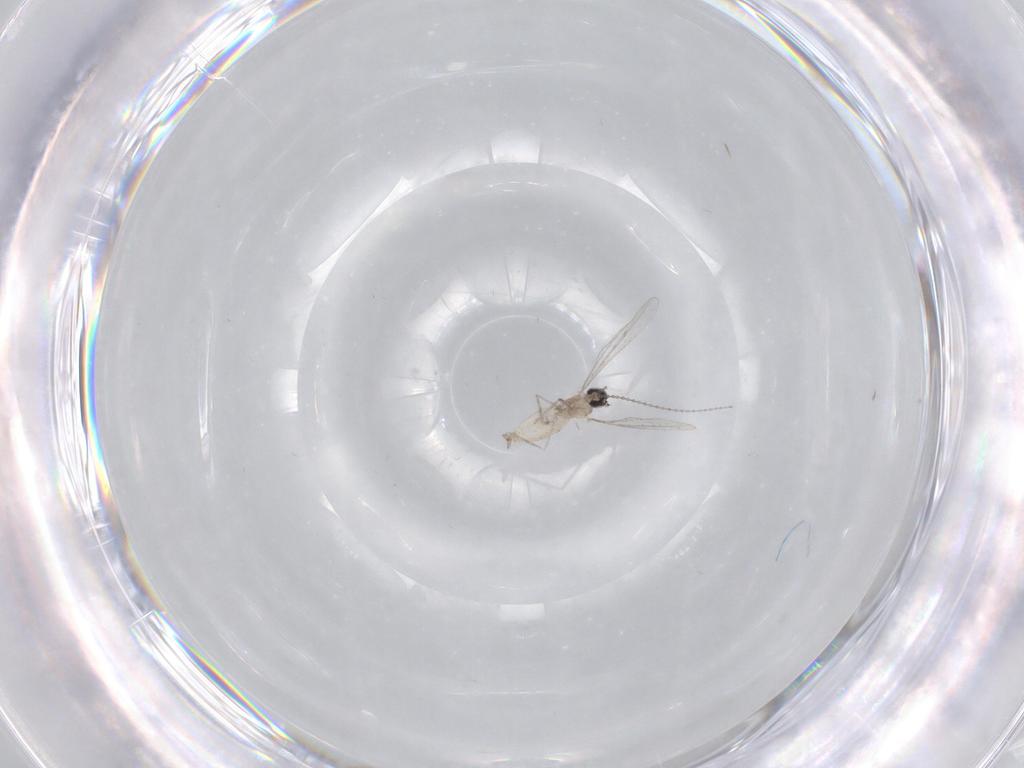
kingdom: Animalia
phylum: Arthropoda
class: Insecta
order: Diptera
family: Cecidomyiidae
